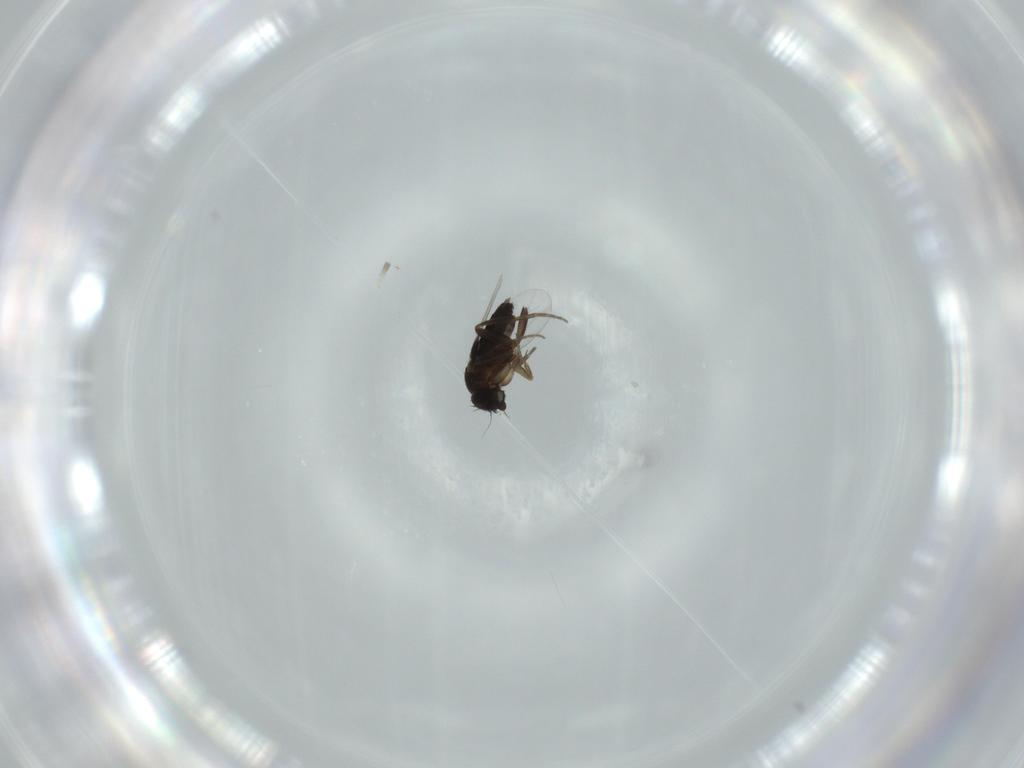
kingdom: Animalia
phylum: Arthropoda
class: Insecta
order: Diptera
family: Phoridae
